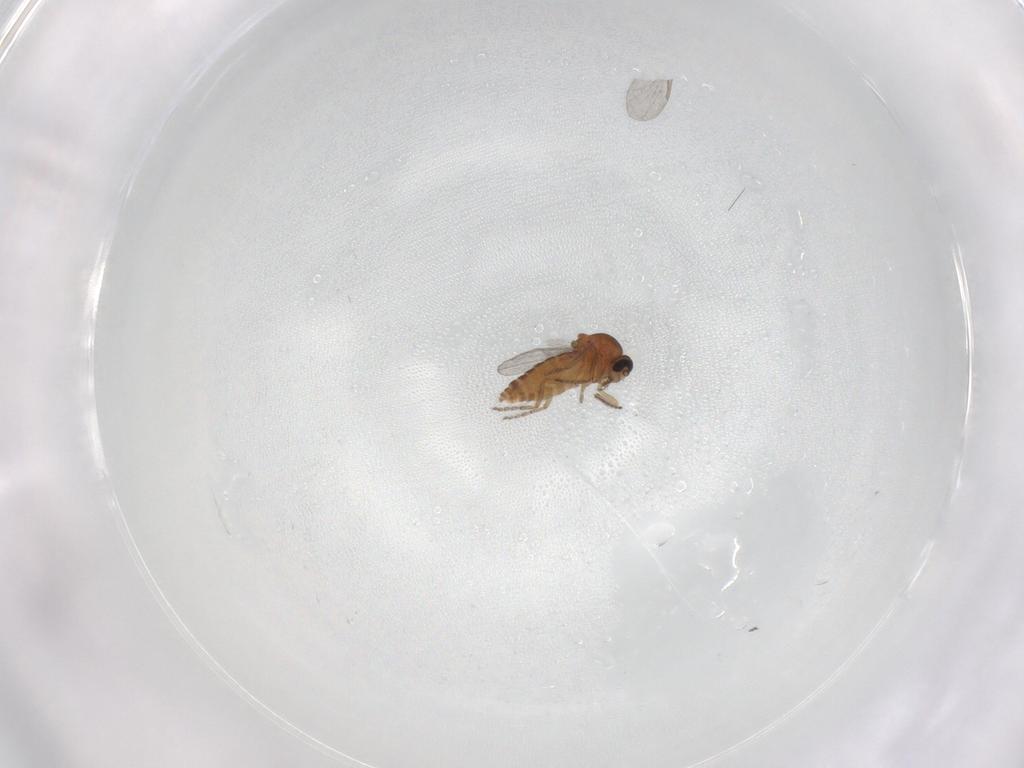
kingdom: Animalia
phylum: Arthropoda
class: Insecta
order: Diptera
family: Ceratopogonidae
